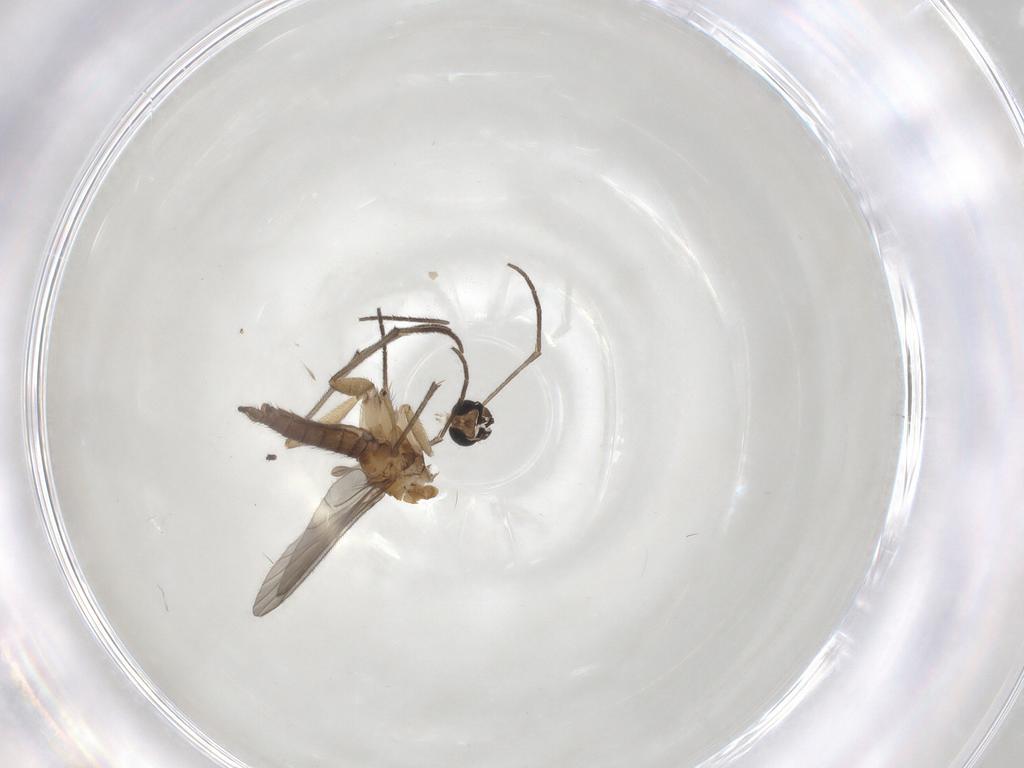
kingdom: Animalia
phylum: Arthropoda
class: Insecta
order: Diptera
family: Sciaridae
